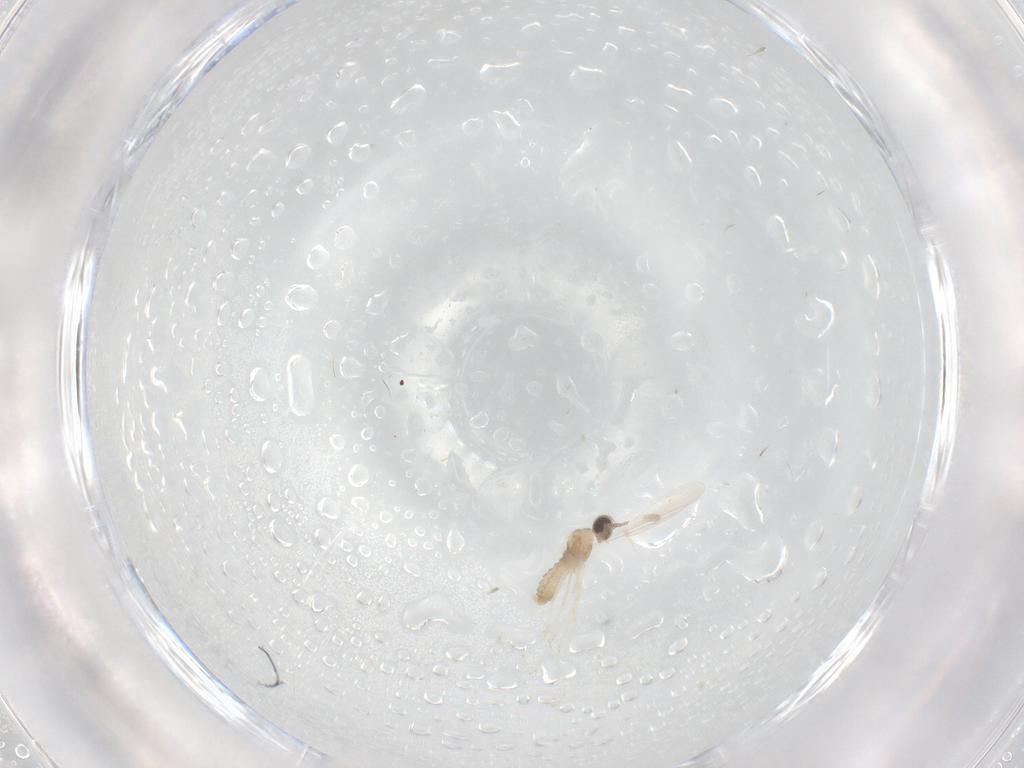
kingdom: Animalia
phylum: Arthropoda
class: Insecta
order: Diptera
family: Cecidomyiidae
